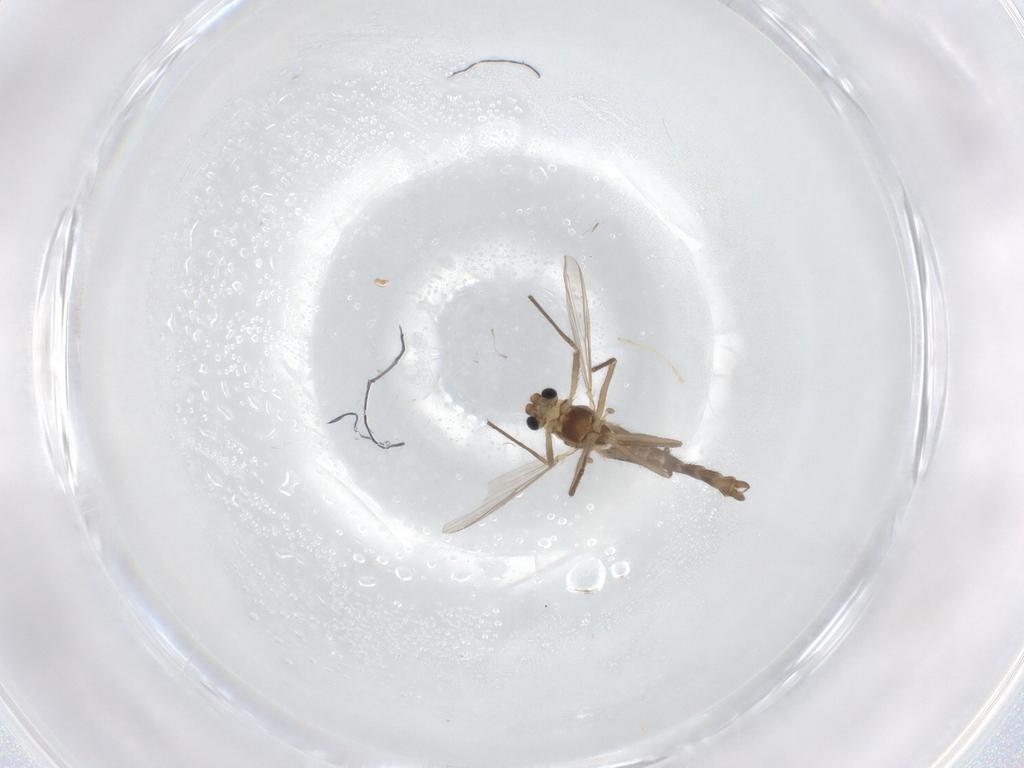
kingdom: Animalia
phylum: Arthropoda
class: Insecta
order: Diptera
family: Chironomidae
